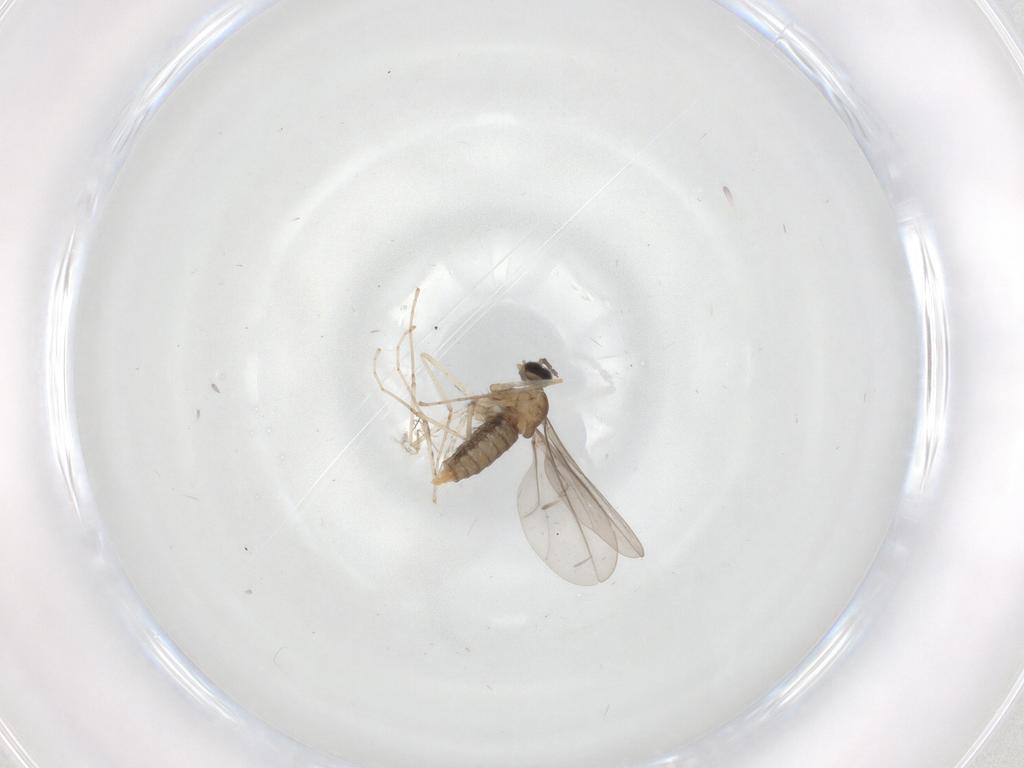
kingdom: Animalia
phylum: Arthropoda
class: Insecta
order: Diptera
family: Cecidomyiidae
